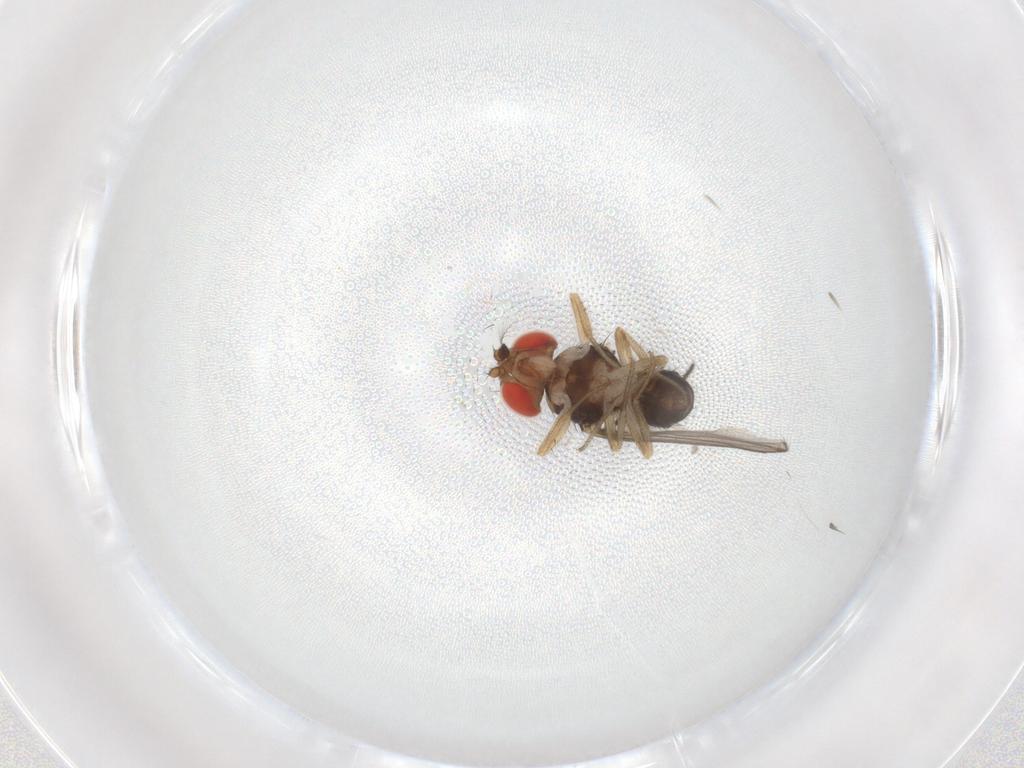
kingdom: Animalia
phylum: Arthropoda
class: Insecta
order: Diptera
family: Sciaridae
